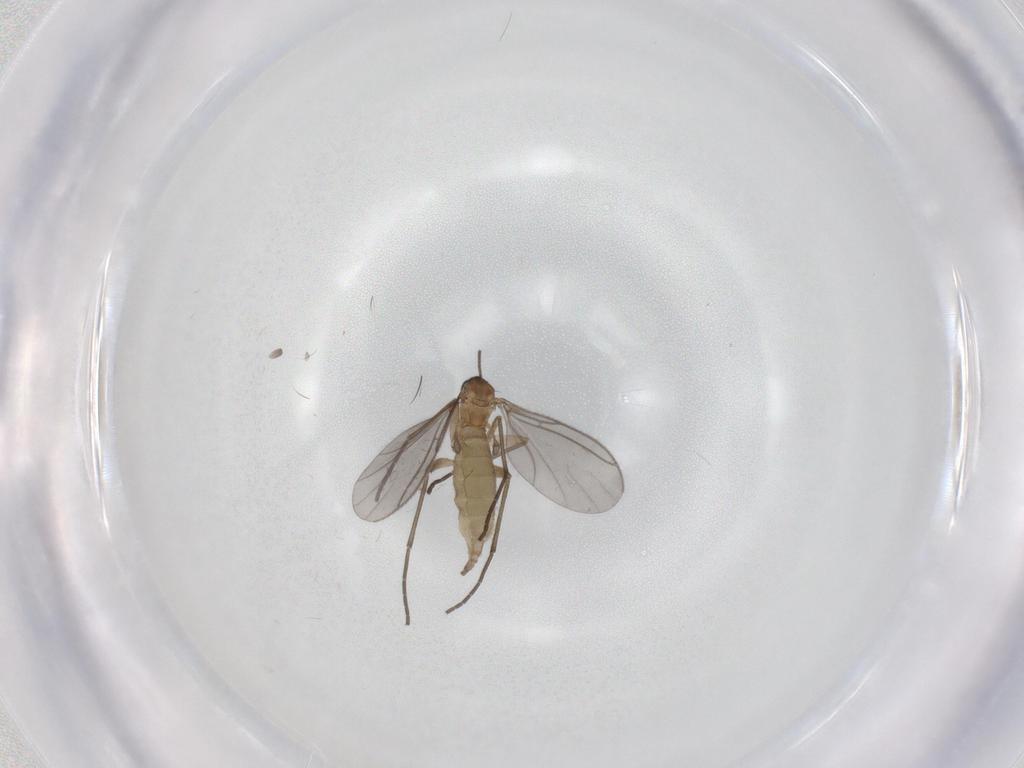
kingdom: Animalia
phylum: Arthropoda
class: Insecta
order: Diptera
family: Sciaridae
